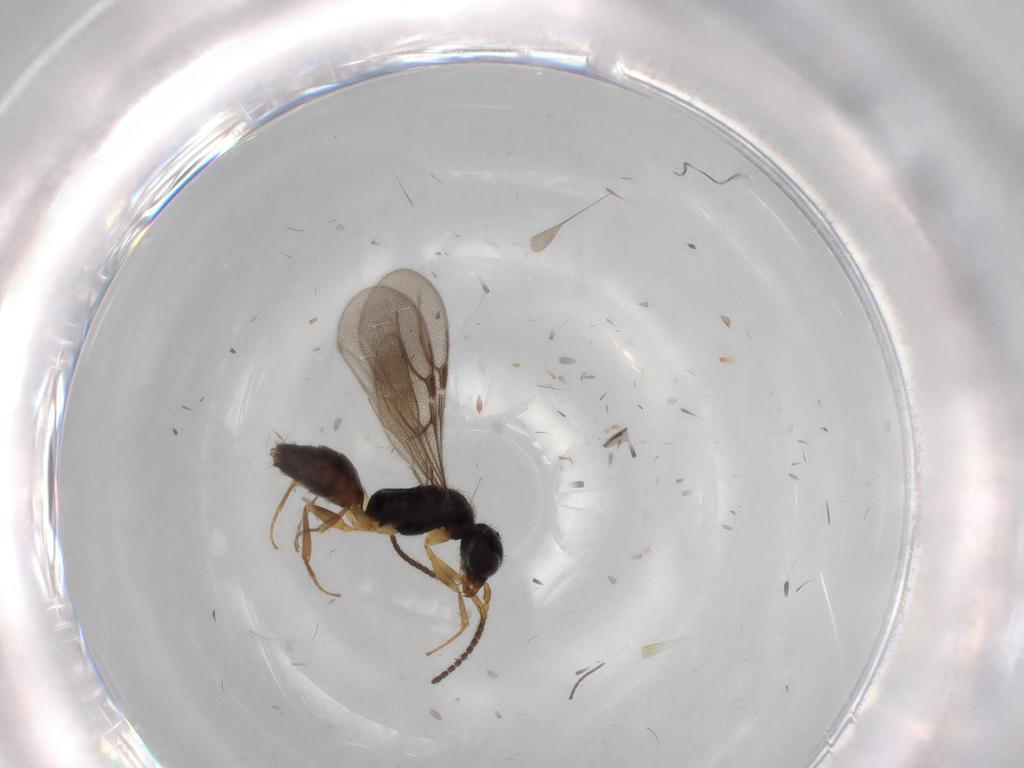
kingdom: Animalia
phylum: Arthropoda
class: Insecta
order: Hymenoptera
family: Bethylidae
